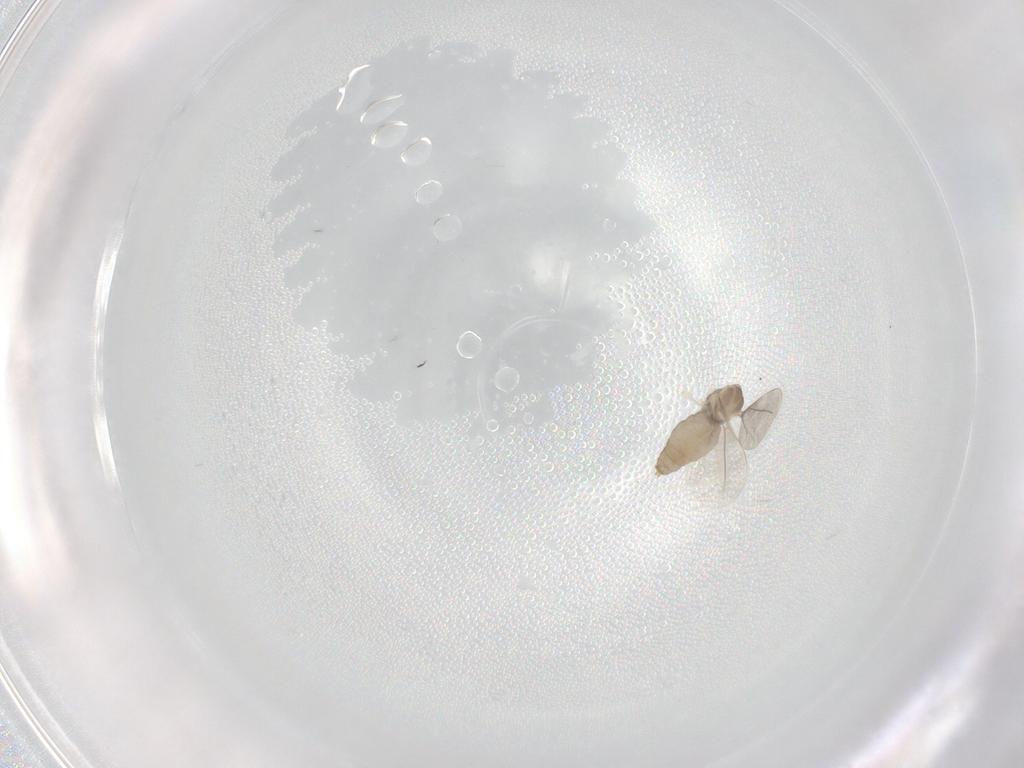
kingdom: Animalia
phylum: Arthropoda
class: Insecta
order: Diptera
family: Cecidomyiidae
